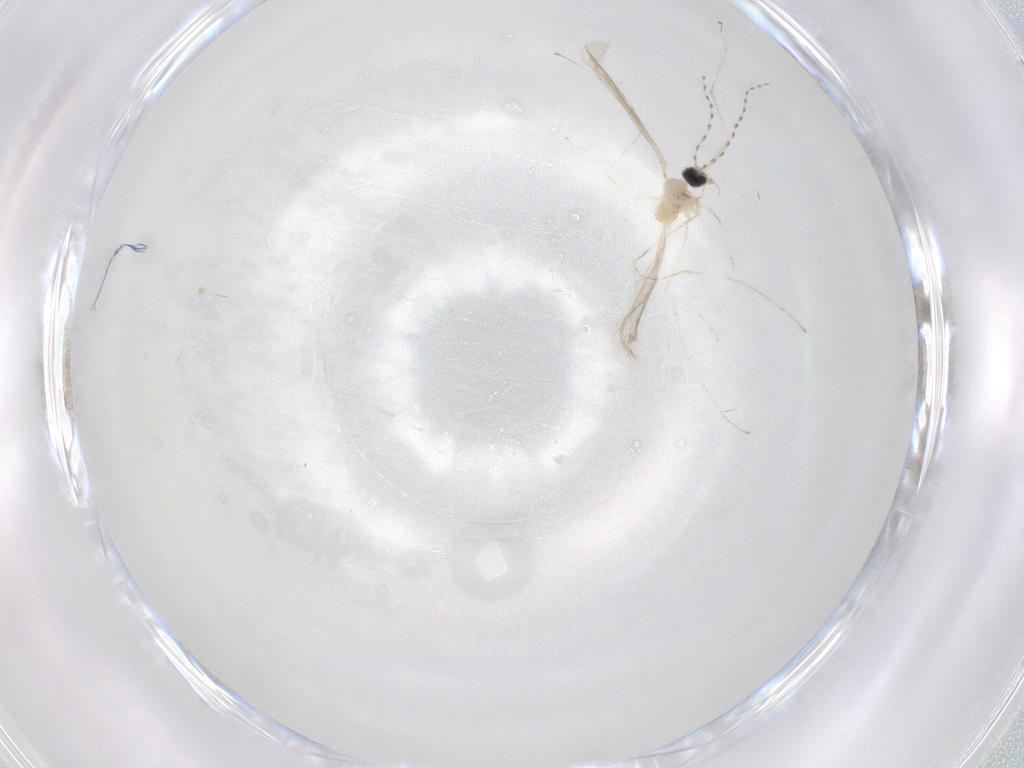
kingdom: Animalia
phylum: Arthropoda
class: Insecta
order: Diptera
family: Cecidomyiidae
